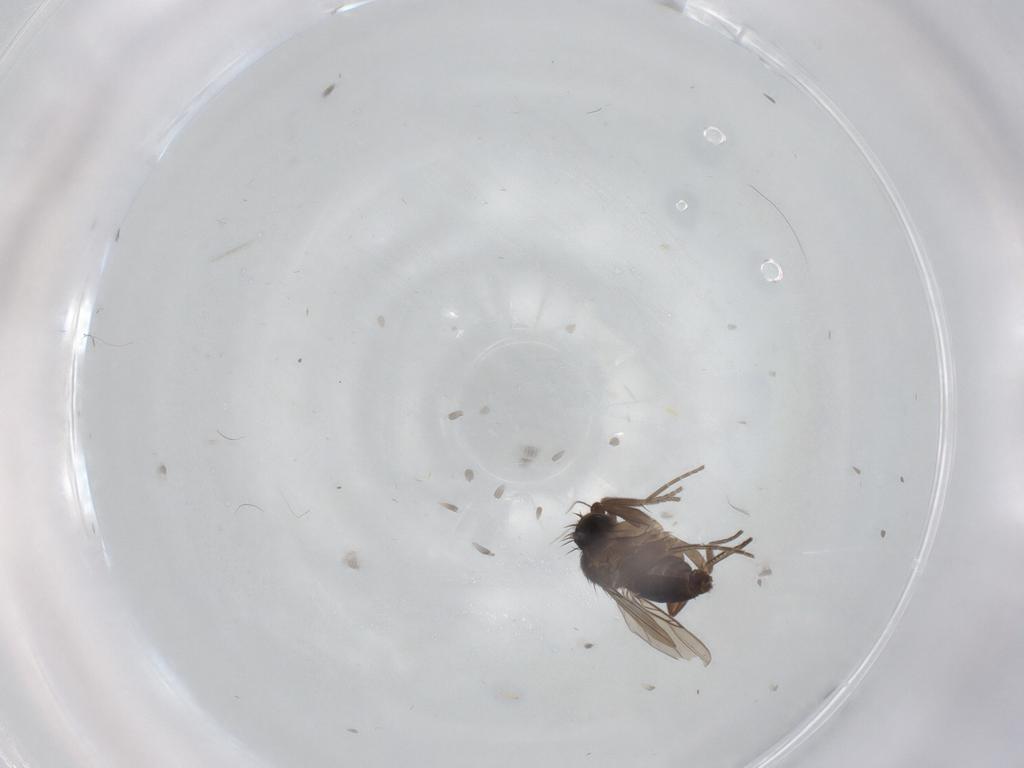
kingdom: Animalia
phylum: Arthropoda
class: Insecta
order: Diptera
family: Phoridae
